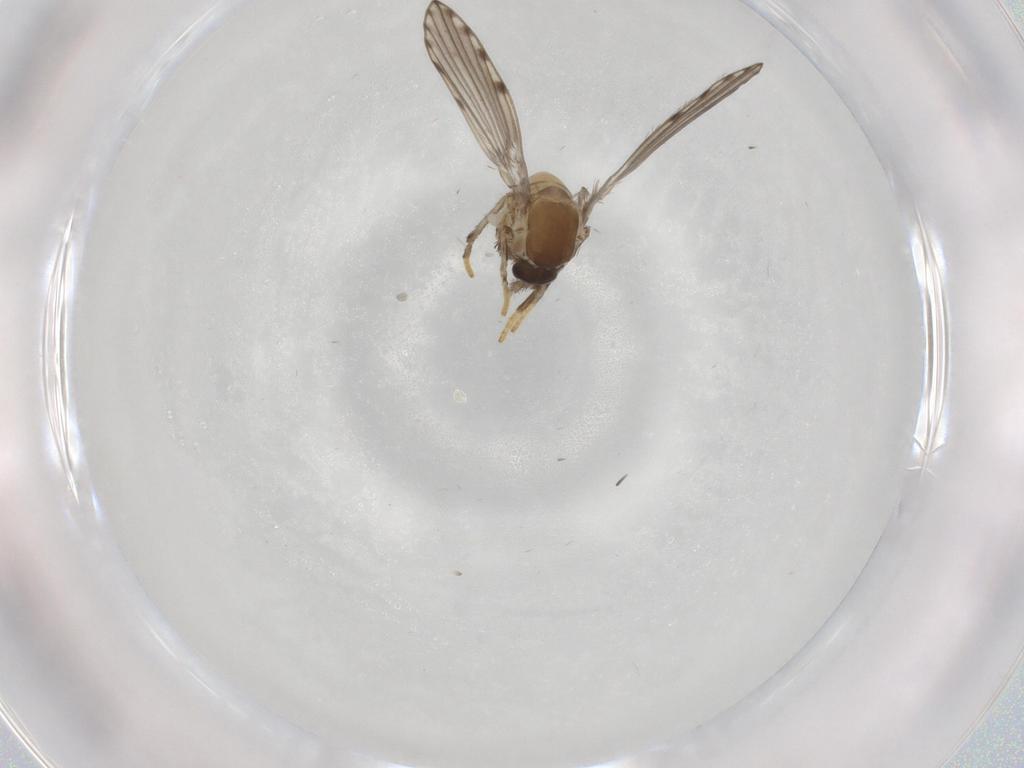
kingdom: Animalia
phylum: Arthropoda
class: Insecta
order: Diptera
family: Psychodidae
